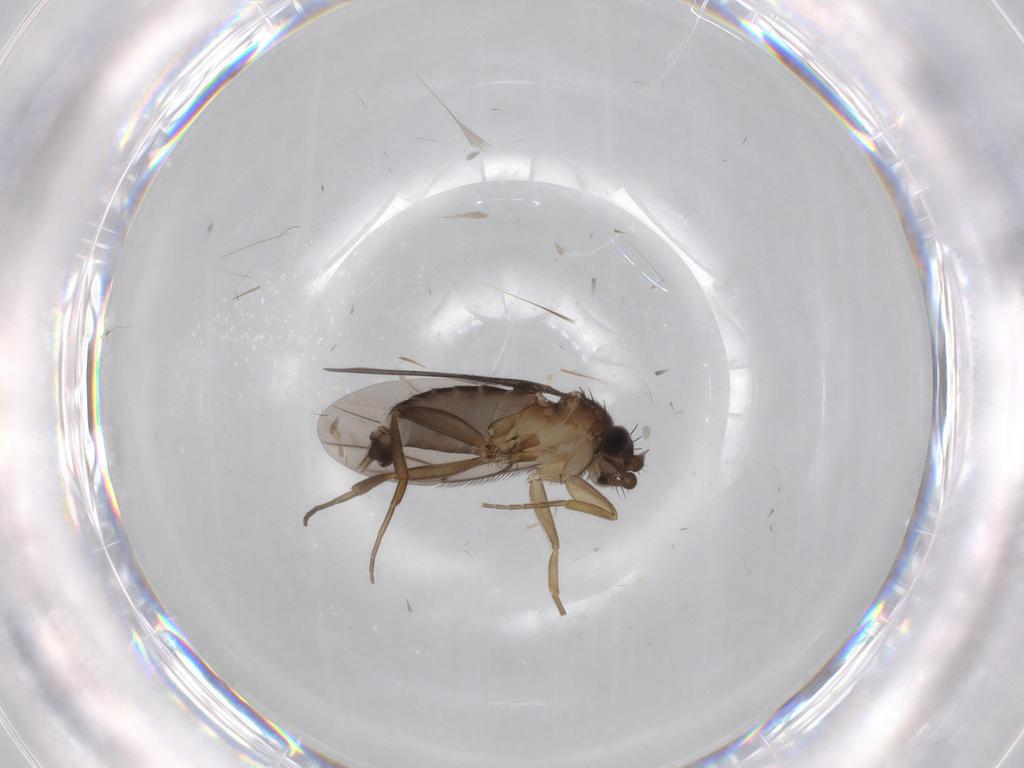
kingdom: Animalia
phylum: Arthropoda
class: Insecta
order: Diptera
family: Phoridae
